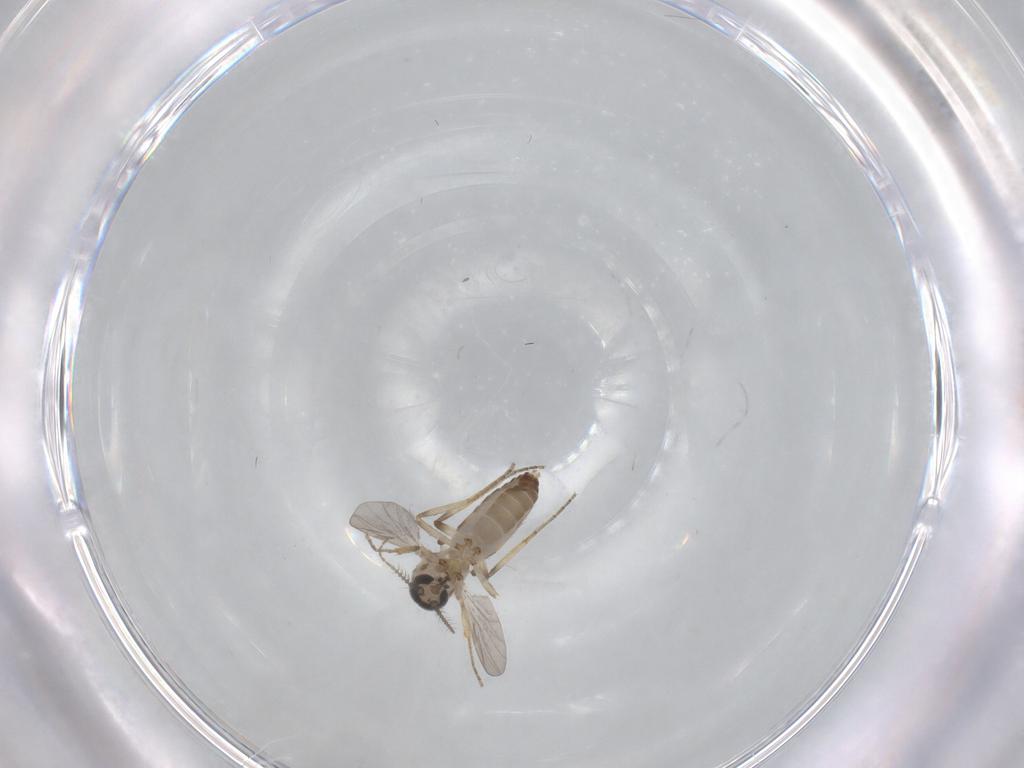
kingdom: Animalia
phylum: Arthropoda
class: Insecta
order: Diptera
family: Ceratopogonidae
